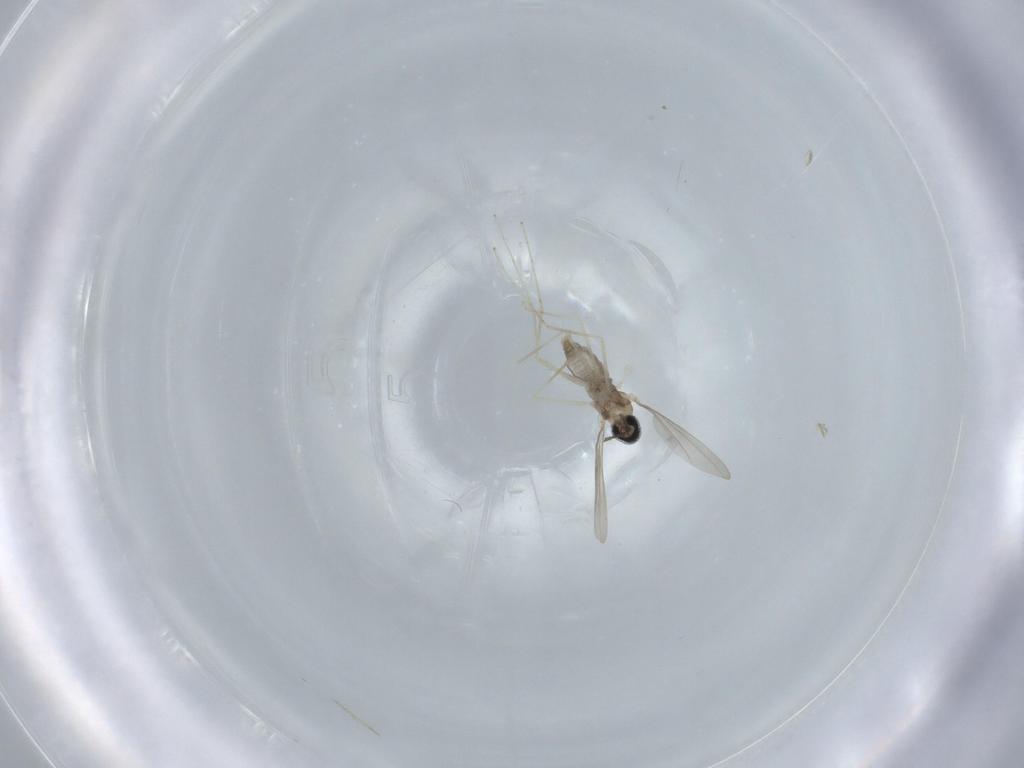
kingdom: Animalia
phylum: Arthropoda
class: Insecta
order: Diptera
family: Cecidomyiidae
